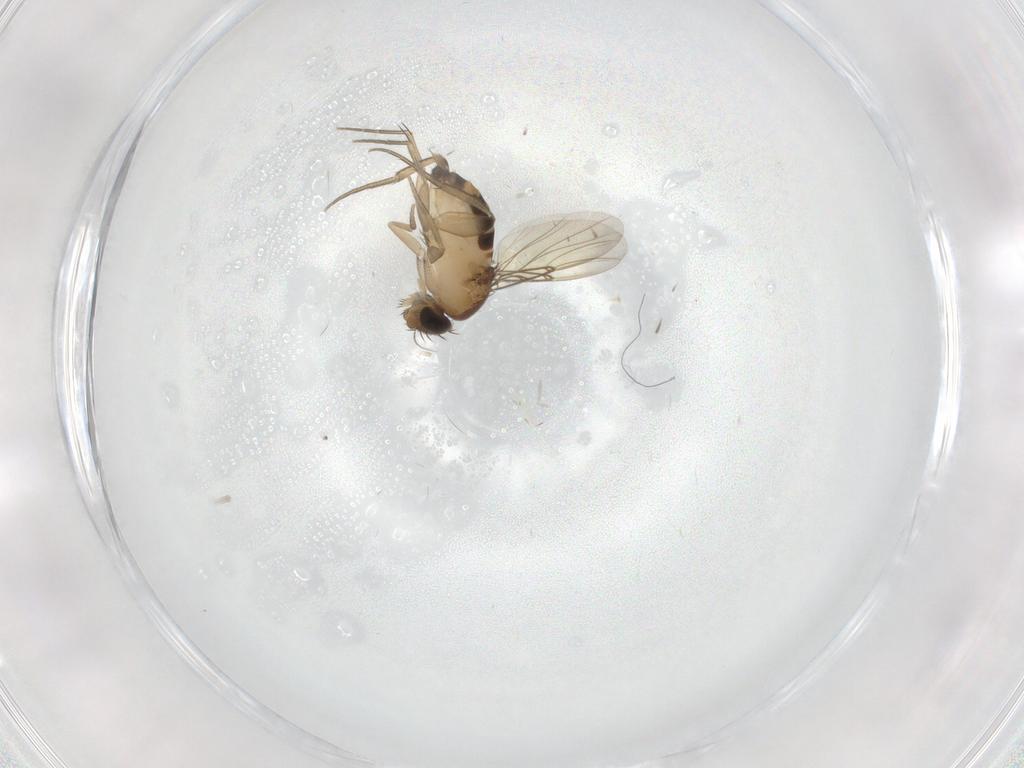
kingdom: Animalia
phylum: Arthropoda
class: Insecta
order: Diptera
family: Phoridae
